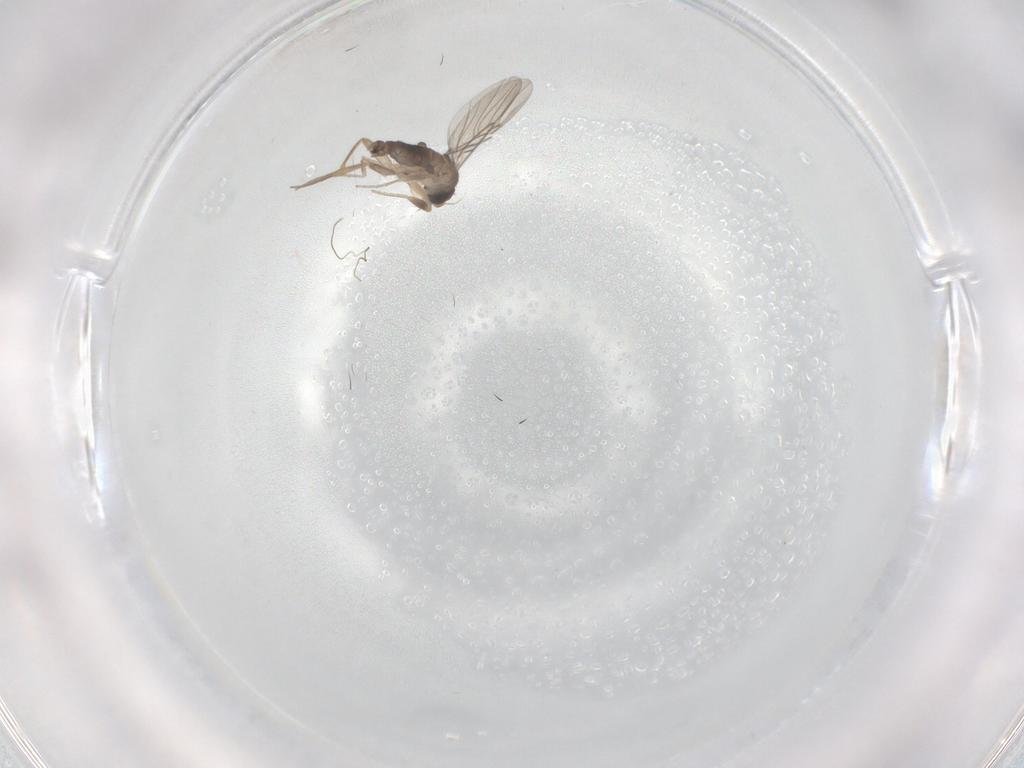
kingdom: Animalia
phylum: Arthropoda
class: Insecta
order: Diptera
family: Phoridae
